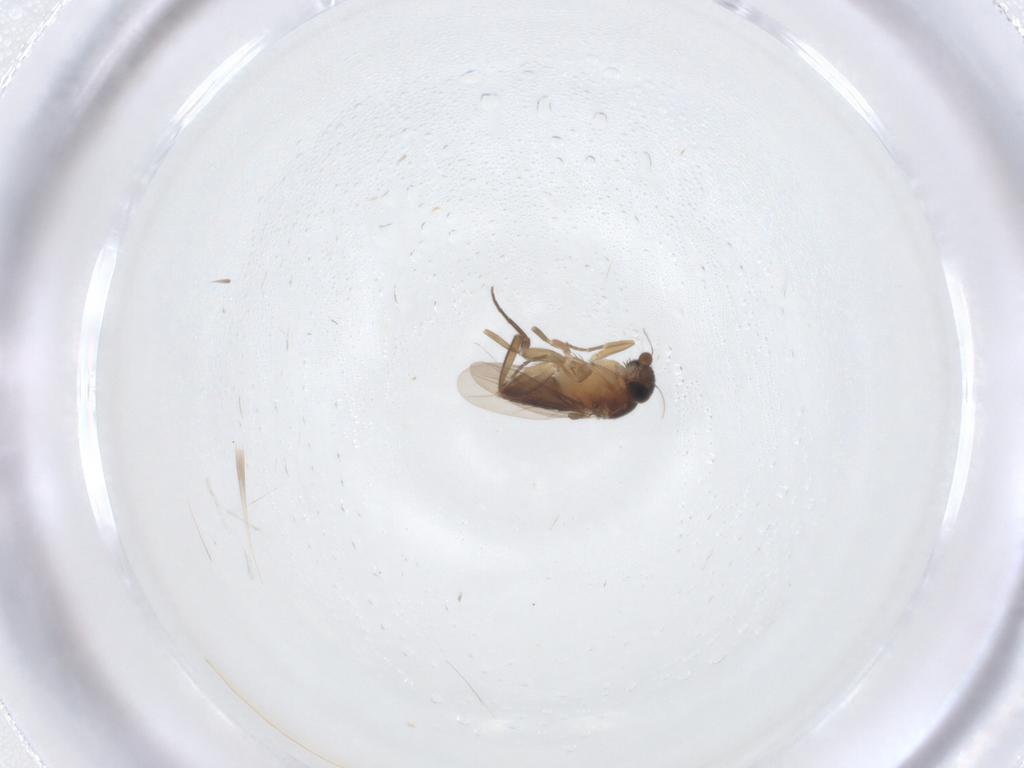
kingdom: Animalia
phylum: Arthropoda
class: Insecta
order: Diptera
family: Phoridae
